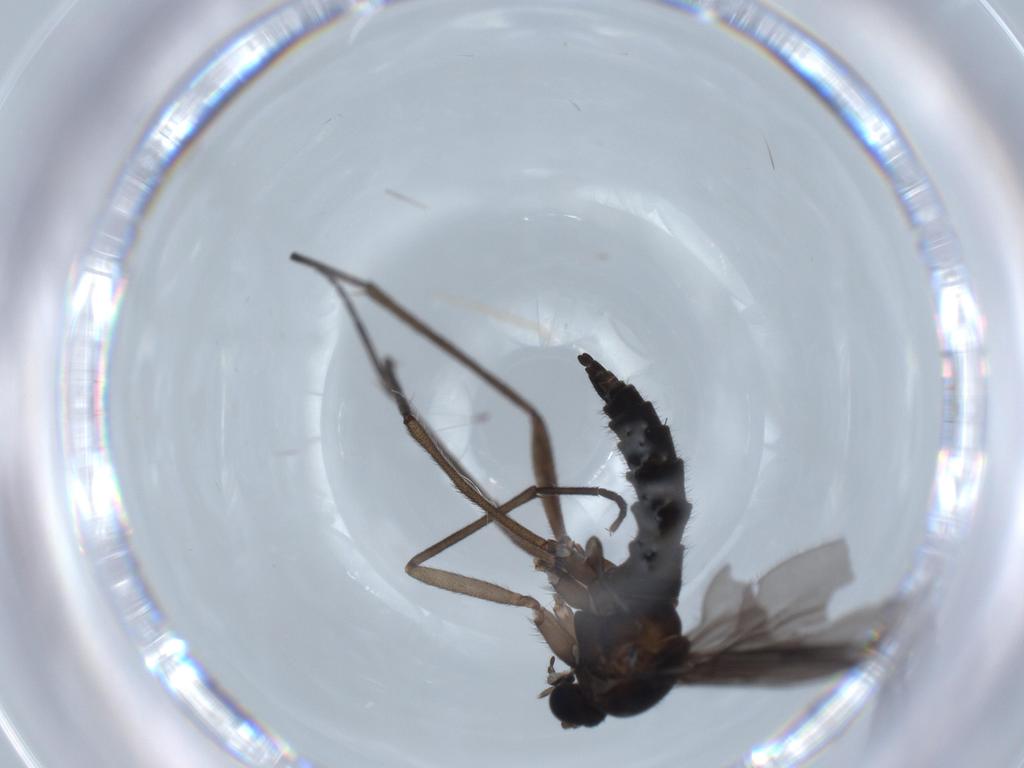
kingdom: Animalia
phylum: Arthropoda
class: Insecta
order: Diptera
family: Sciaridae
